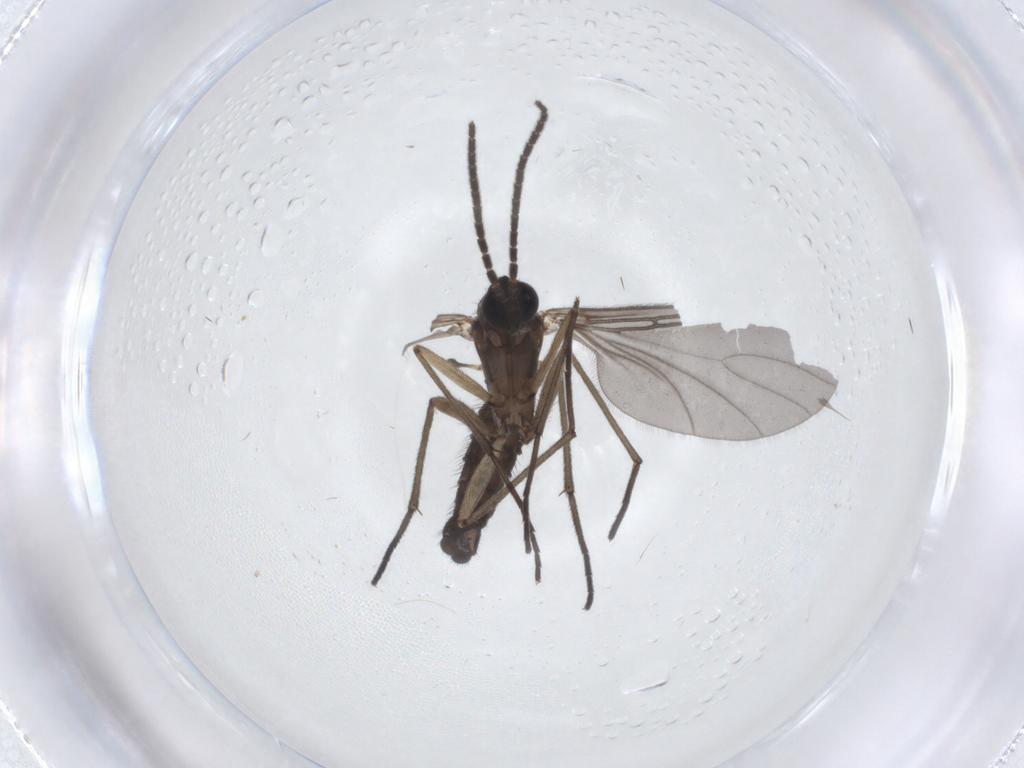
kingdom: Animalia
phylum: Arthropoda
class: Insecta
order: Diptera
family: Sciaridae
